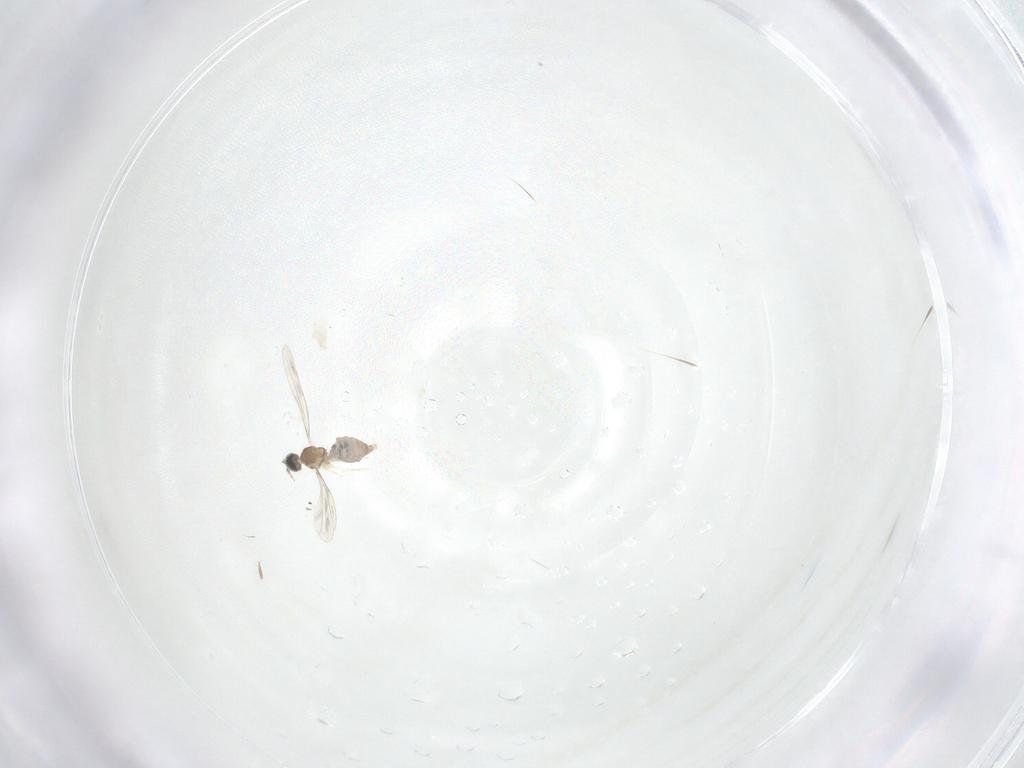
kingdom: Animalia
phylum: Arthropoda
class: Insecta
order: Diptera
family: Cecidomyiidae
